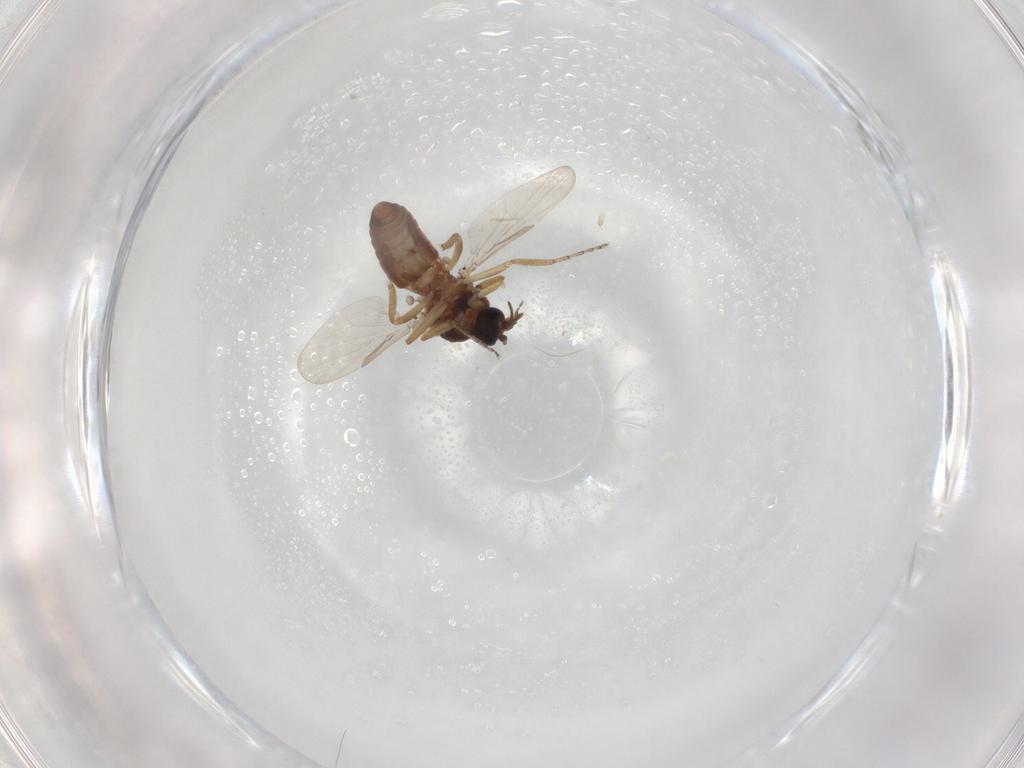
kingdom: Animalia
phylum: Arthropoda
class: Insecta
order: Diptera
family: Ceratopogonidae
